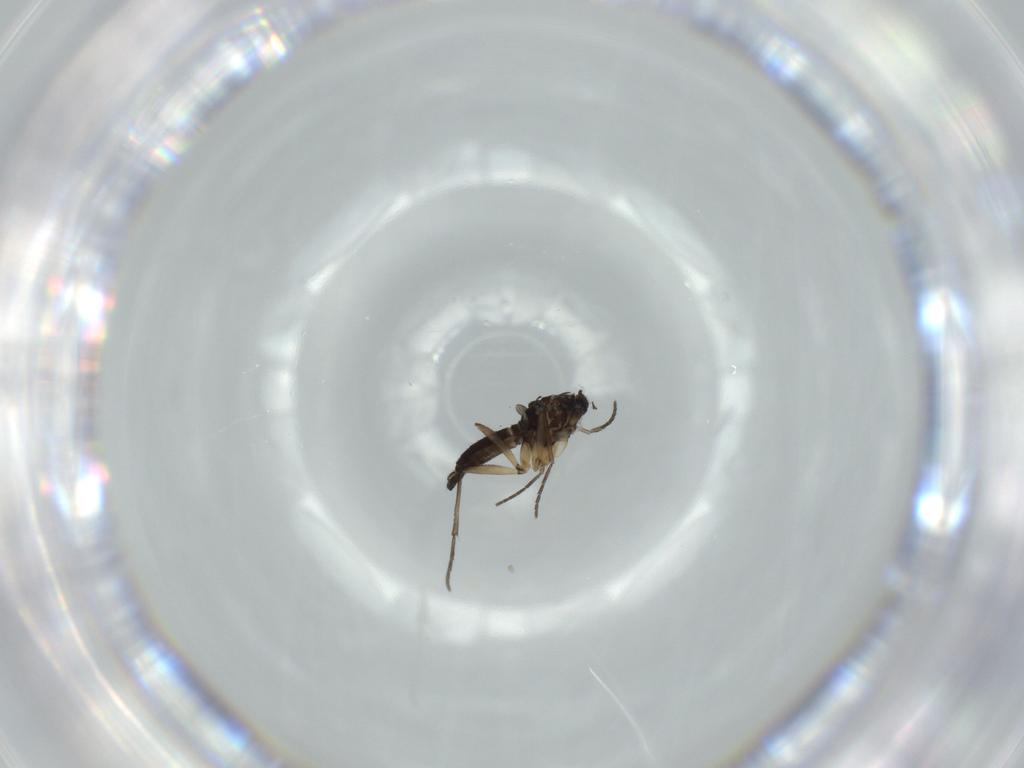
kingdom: Animalia
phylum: Arthropoda
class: Insecta
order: Diptera
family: Sciaridae
